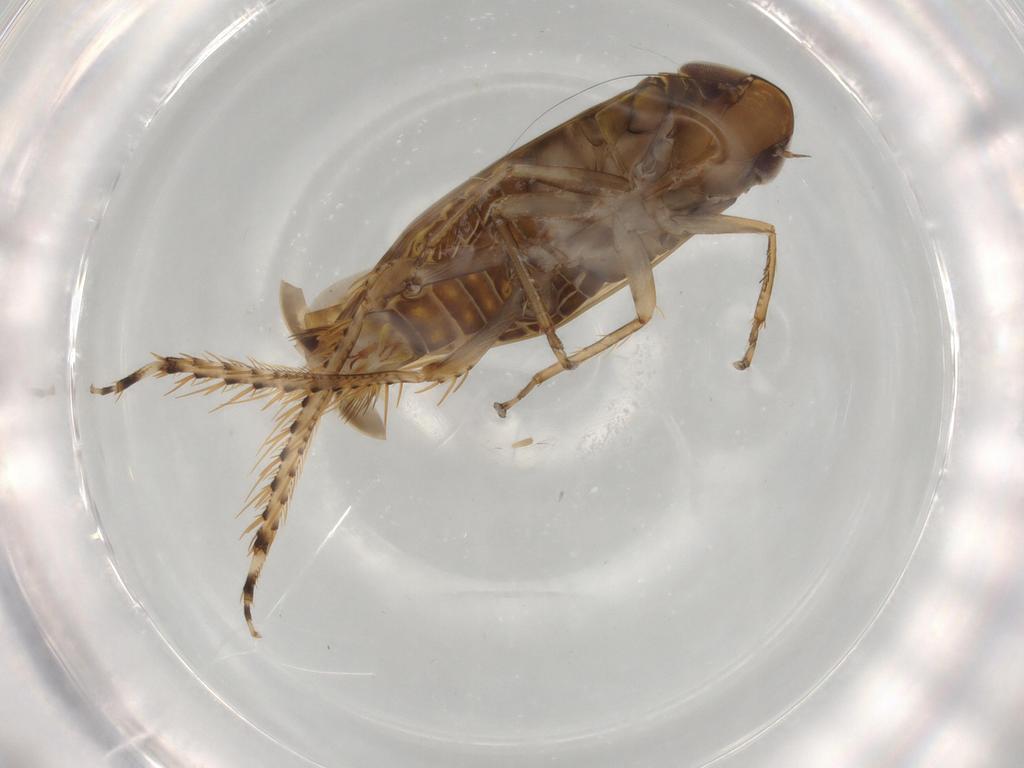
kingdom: Animalia
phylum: Arthropoda
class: Insecta
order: Hemiptera
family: Cicadellidae
